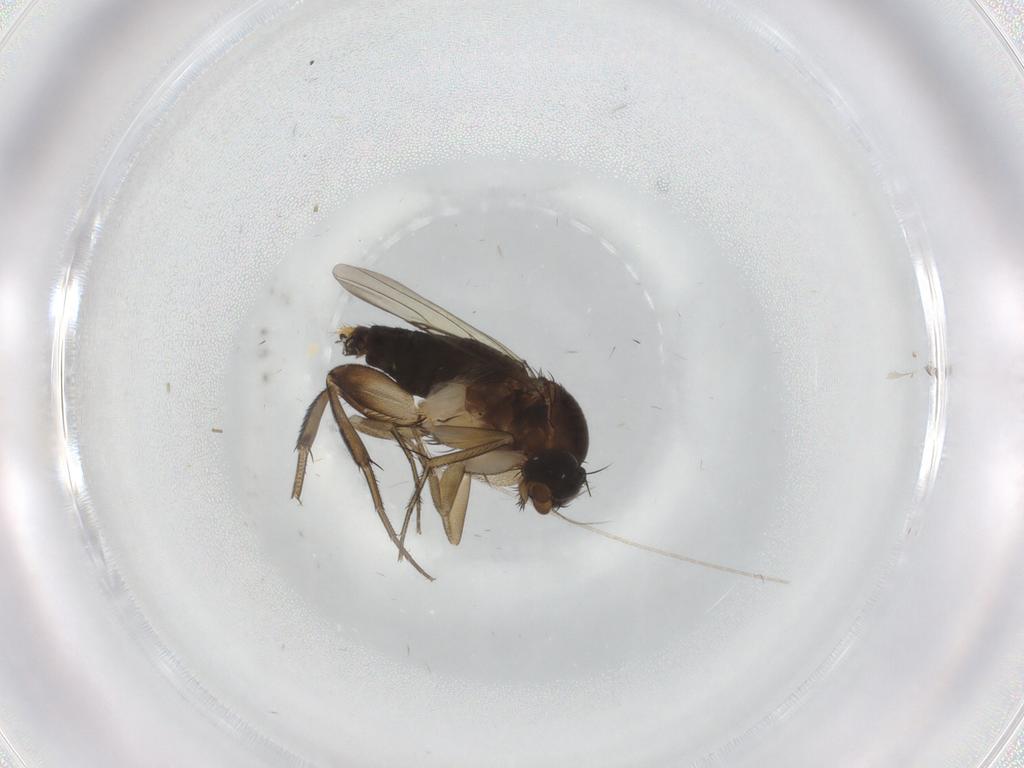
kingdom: Animalia
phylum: Arthropoda
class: Insecta
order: Diptera
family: Phoridae
